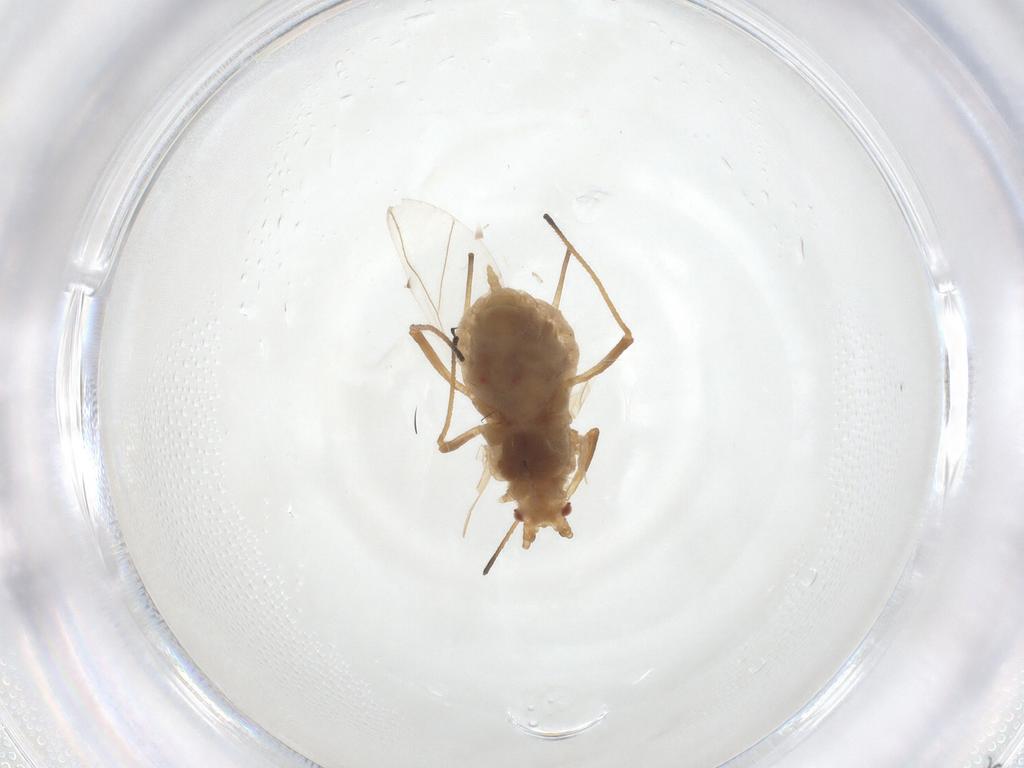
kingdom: Animalia
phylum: Arthropoda
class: Insecta
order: Hemiptera
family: Aphididae
